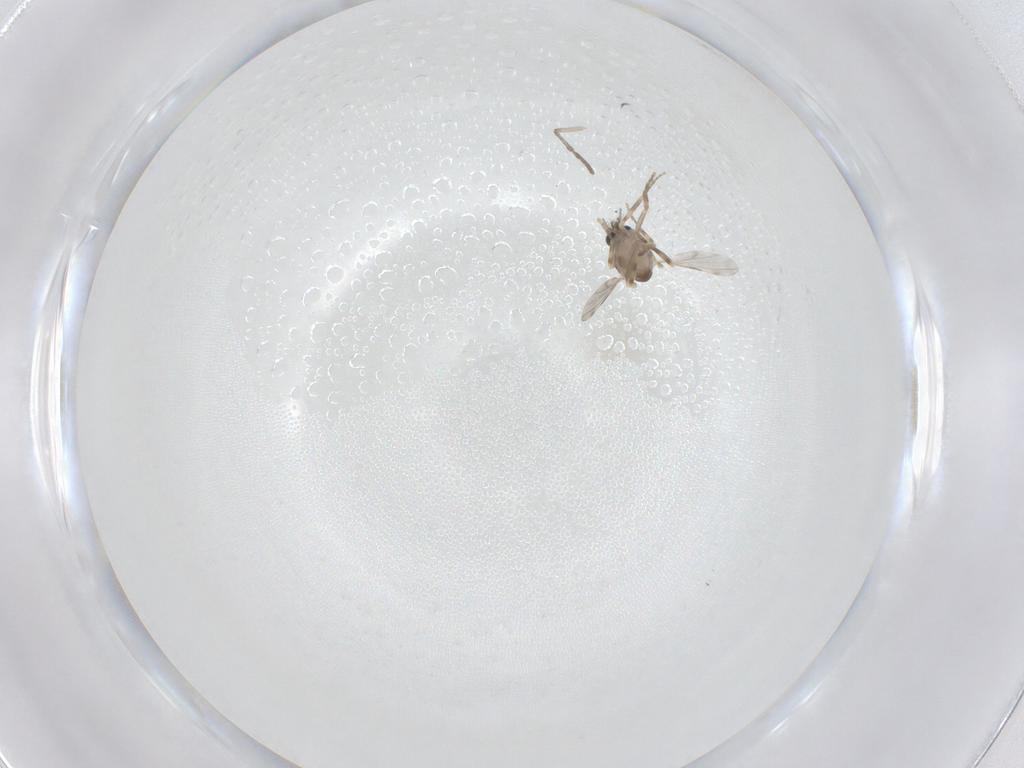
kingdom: Animalia
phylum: Arthropoda
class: Insecta
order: Diptera
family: Ceratopogonidae
